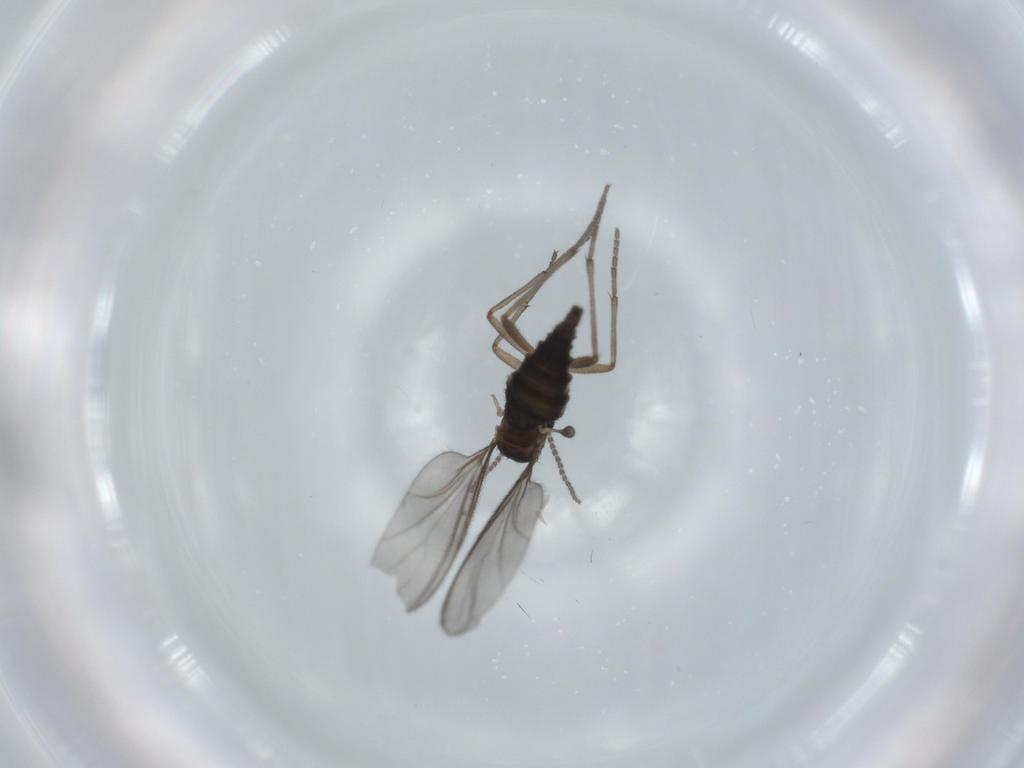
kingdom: Animalia
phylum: Arthropoda
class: Insecta
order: Diptera
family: Sciaridae
